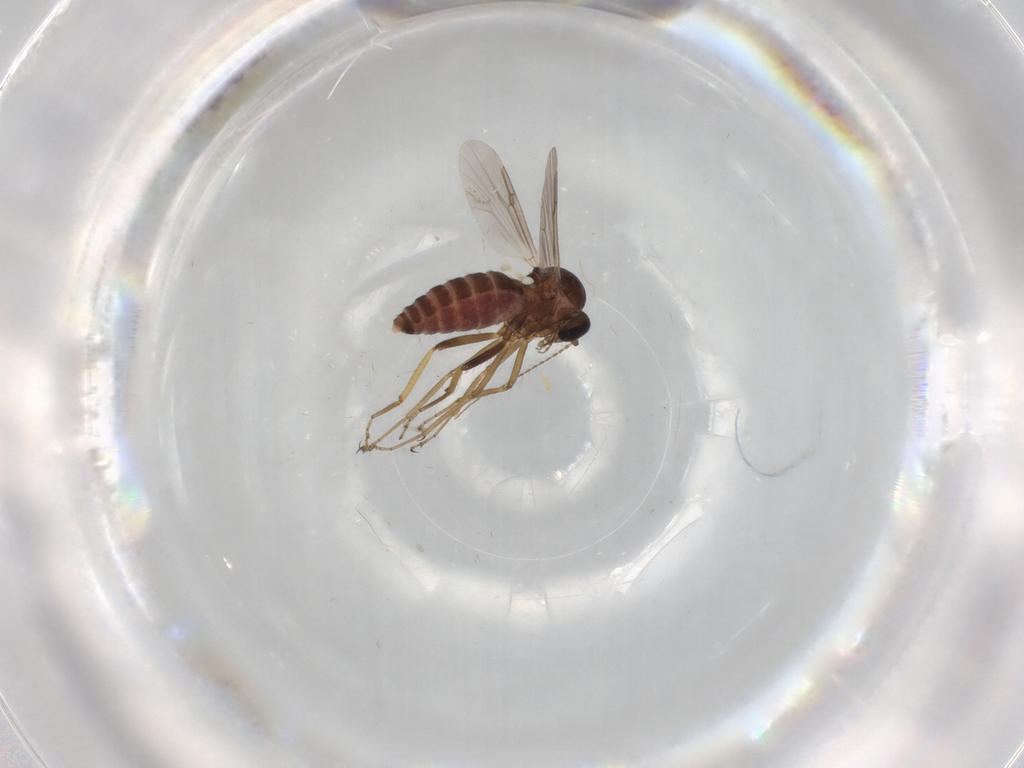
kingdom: Animalia
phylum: Arthropoda
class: Insecta
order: Diptera
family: Ceratopogonidae
